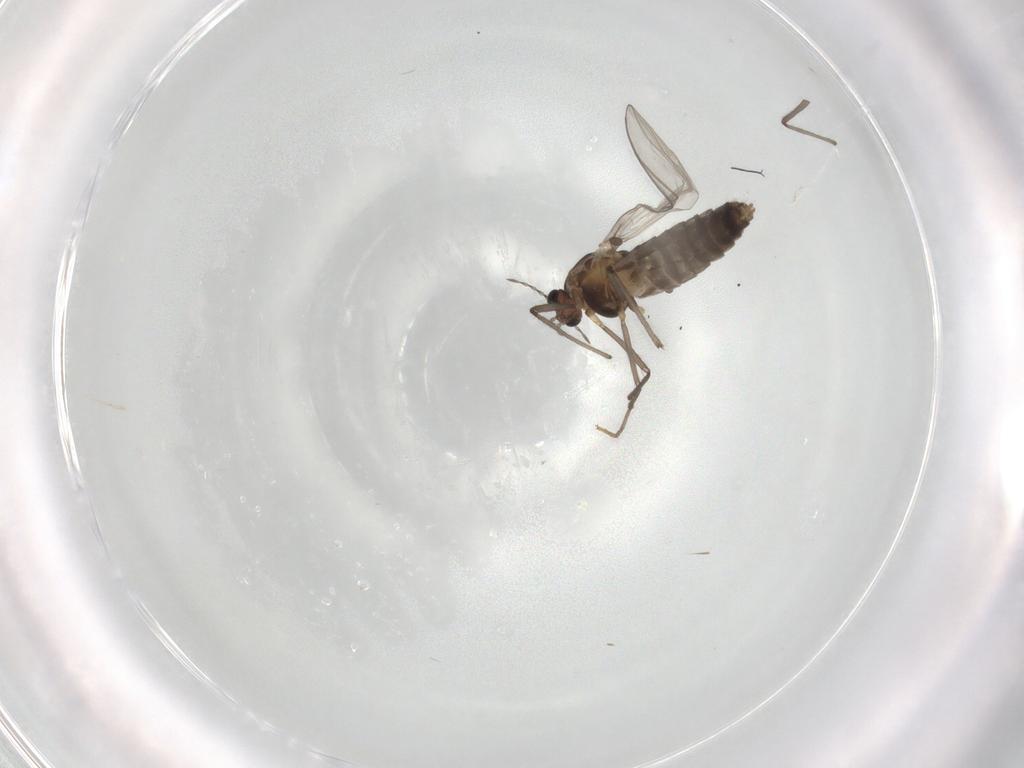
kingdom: Animalia
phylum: Arthropoda
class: Insecta
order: Diptera
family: Chironomidae
